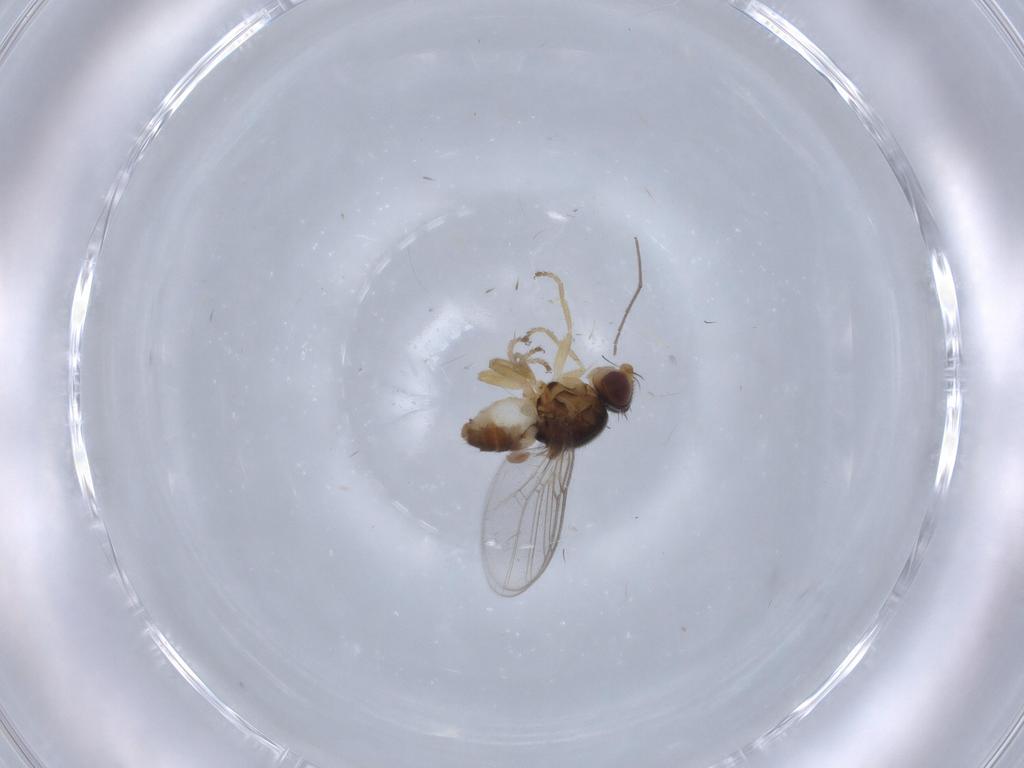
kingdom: Animalia
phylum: Arthropoda
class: Insecta
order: Diptera
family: Chloropidae
